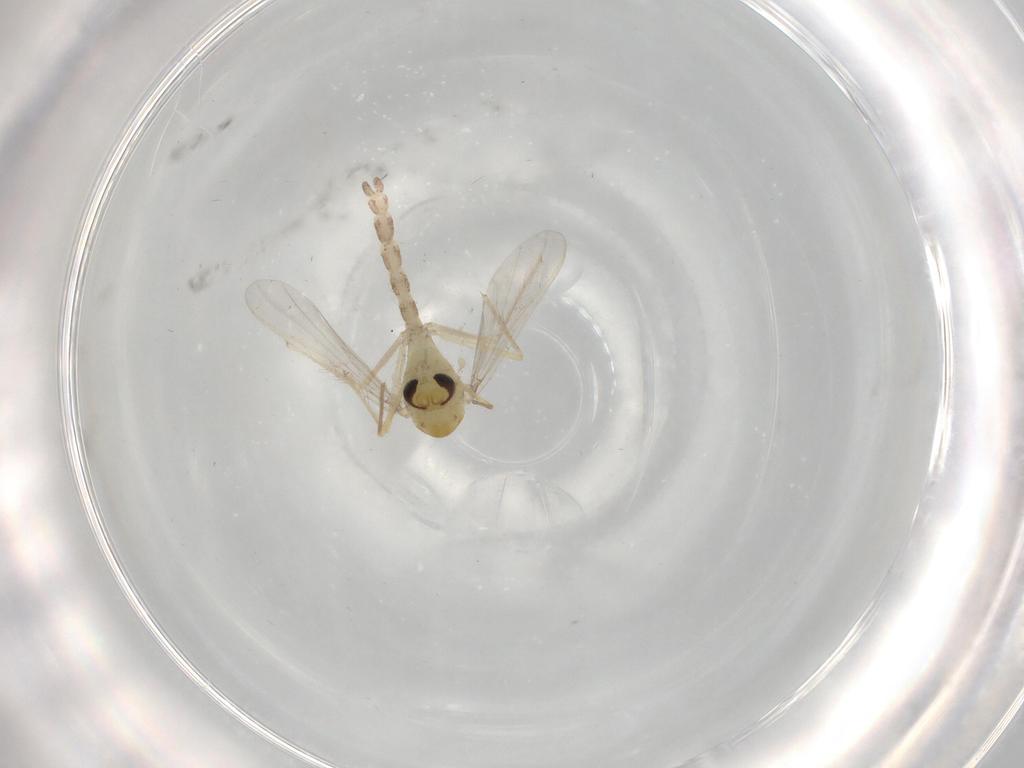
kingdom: Animalia
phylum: Arthropoda
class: Insecta
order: Diptera
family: Chironomidae
